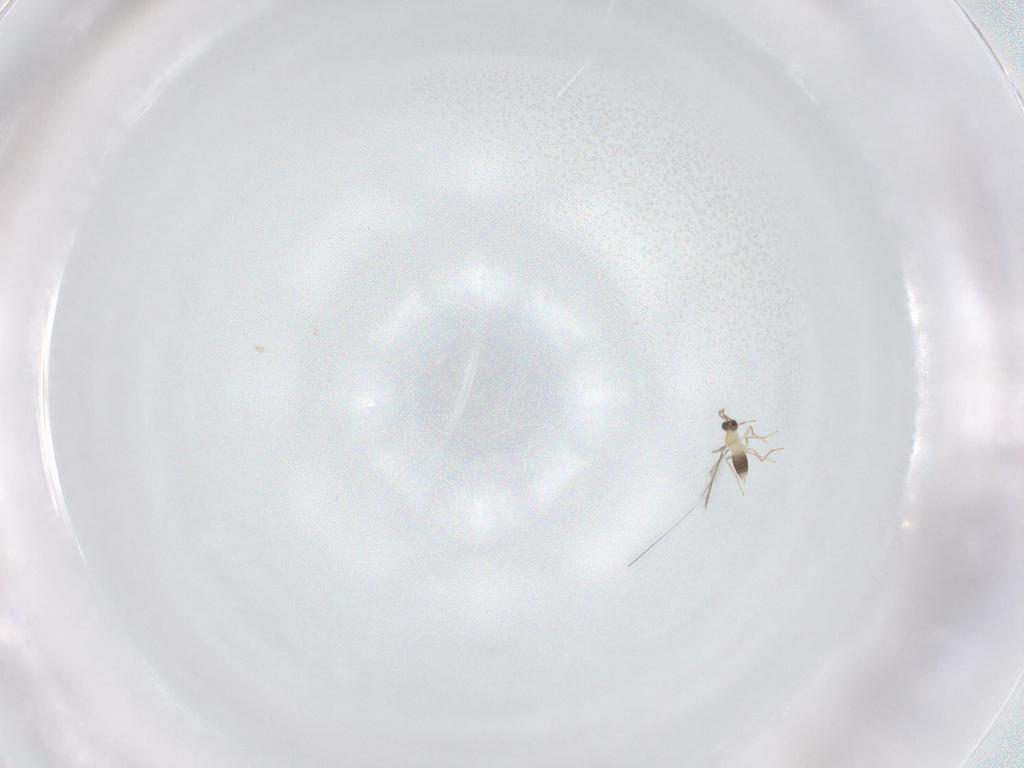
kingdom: Animalia
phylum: Arthropoda
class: Insecta
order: Hymenoptera
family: Mymaridae
